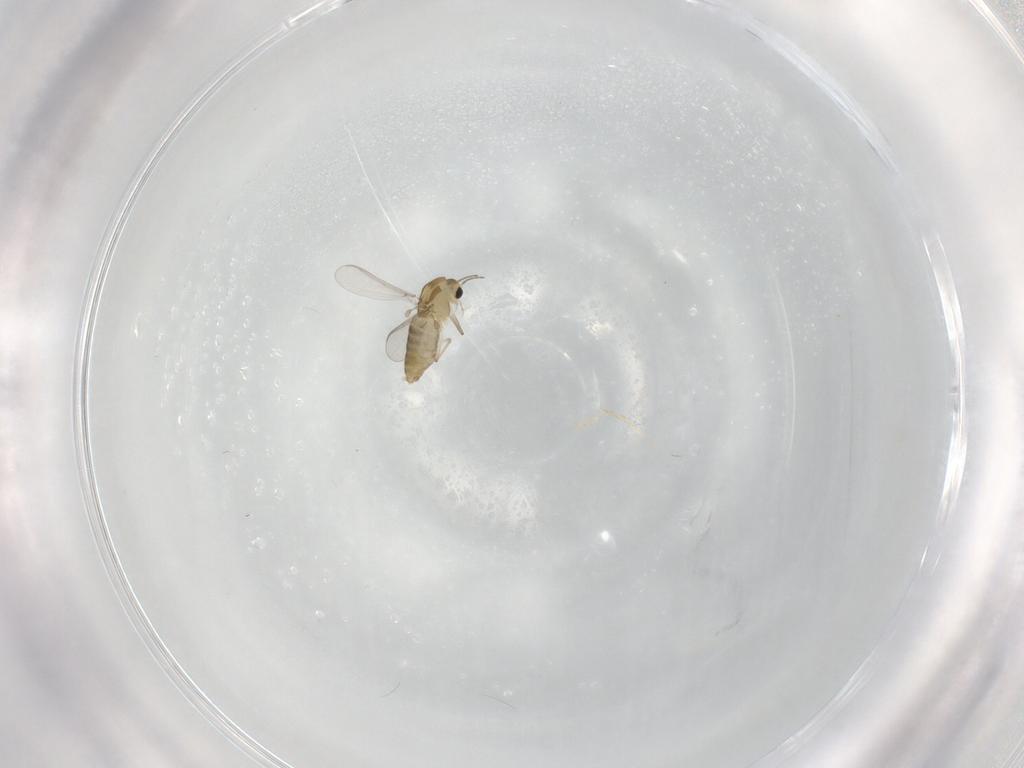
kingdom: Animalia
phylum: Arthropoda
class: Insecta
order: Diptera
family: Chironomidae
